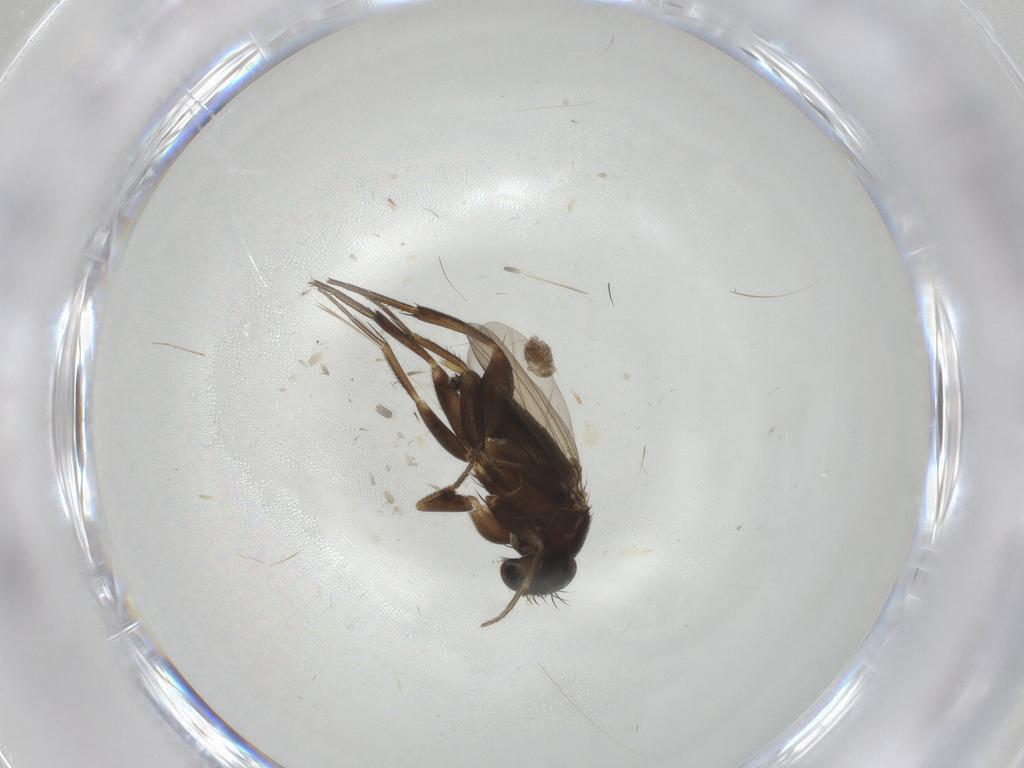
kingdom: Animalia
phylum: Arthropoda
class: Insecta
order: Diptera
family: Phoridae
